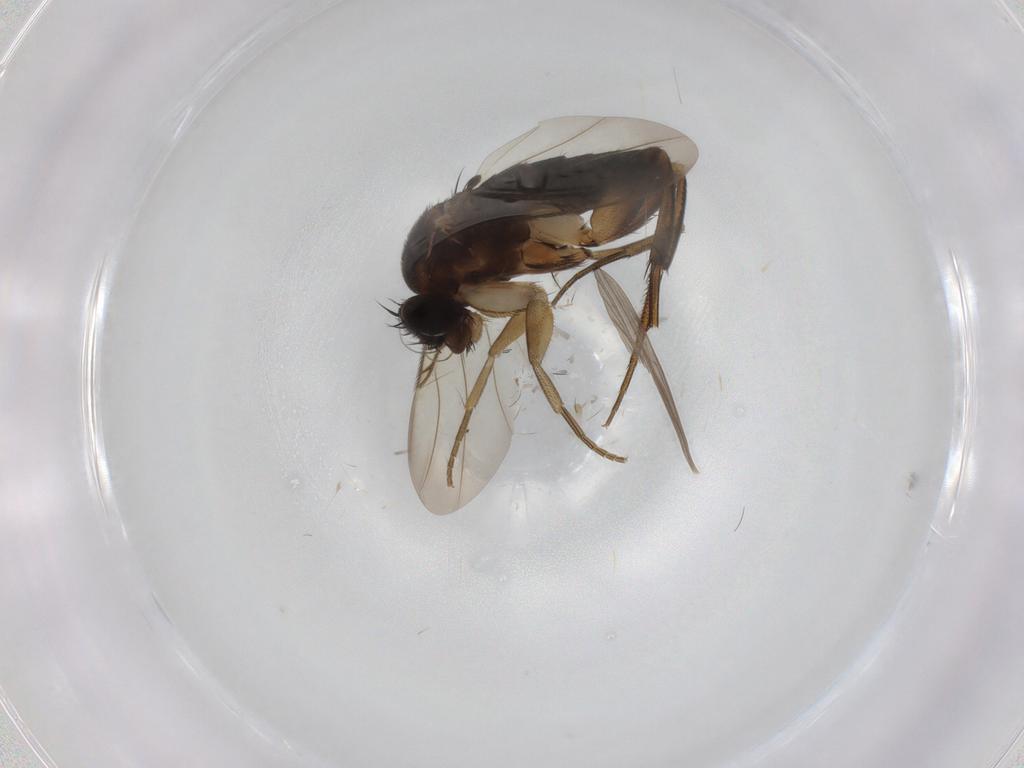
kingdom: Animalia
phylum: Arthropoda
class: Insecta
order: Diptera
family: Phoridae
